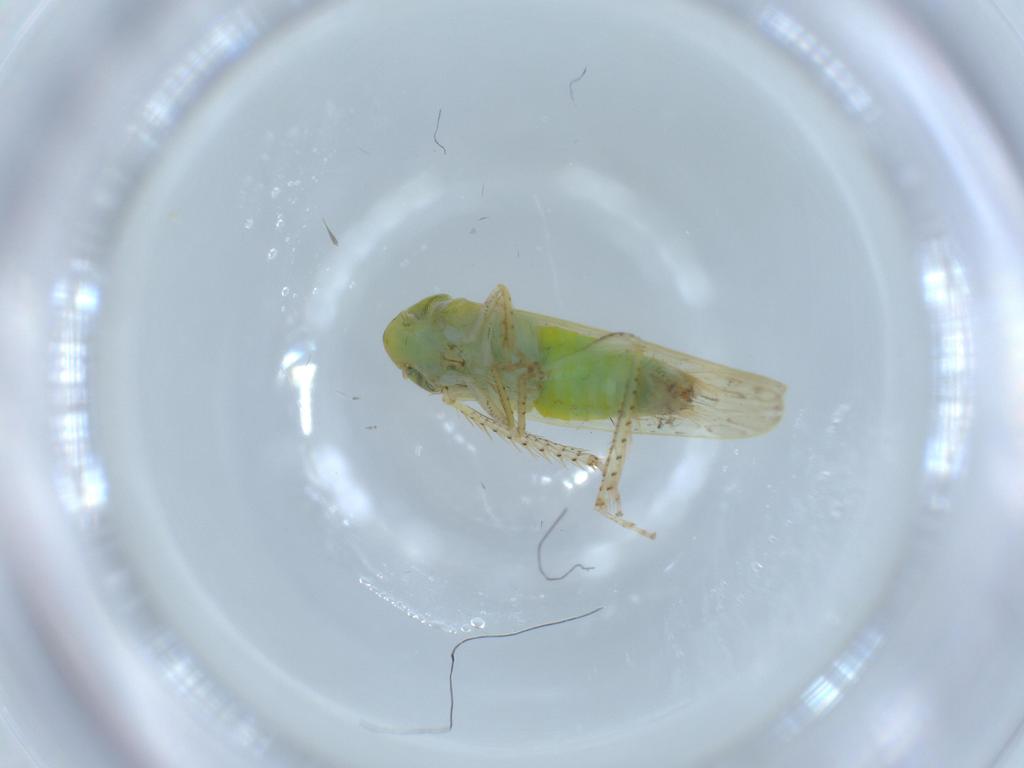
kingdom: Animalia
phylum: Arthropoda
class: Insecta
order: Hemiptera
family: Cicadellidae
